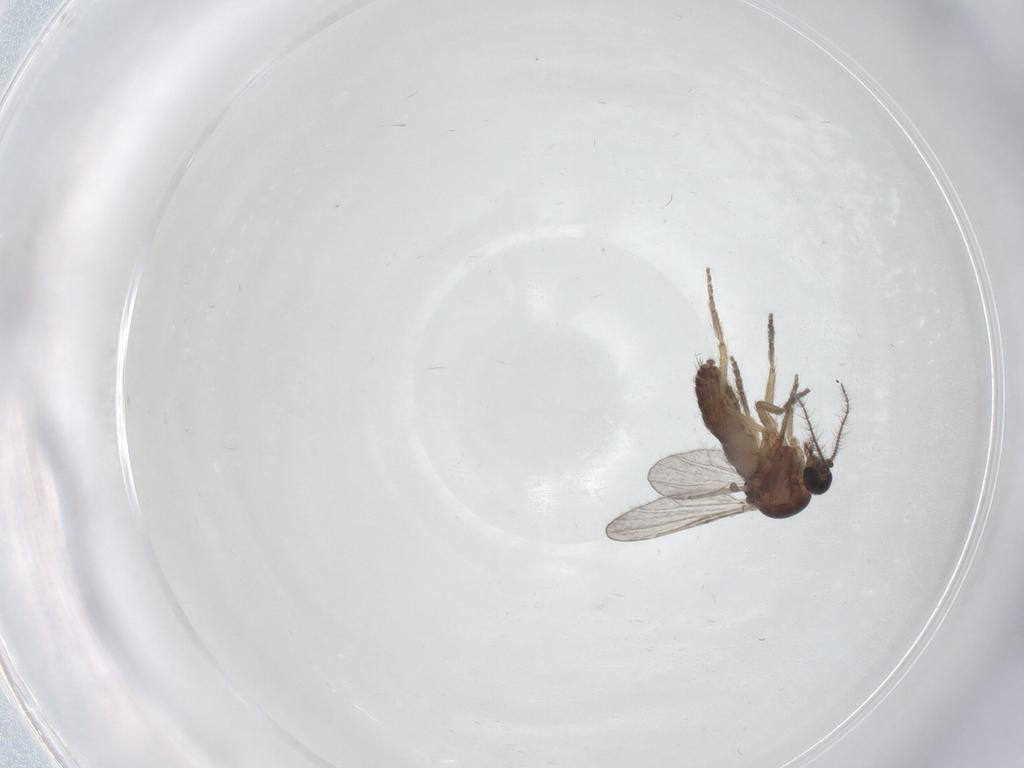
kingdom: Animalia
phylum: Arthropoda
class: Insecta
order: Diptera
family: Ceratopogonidae
